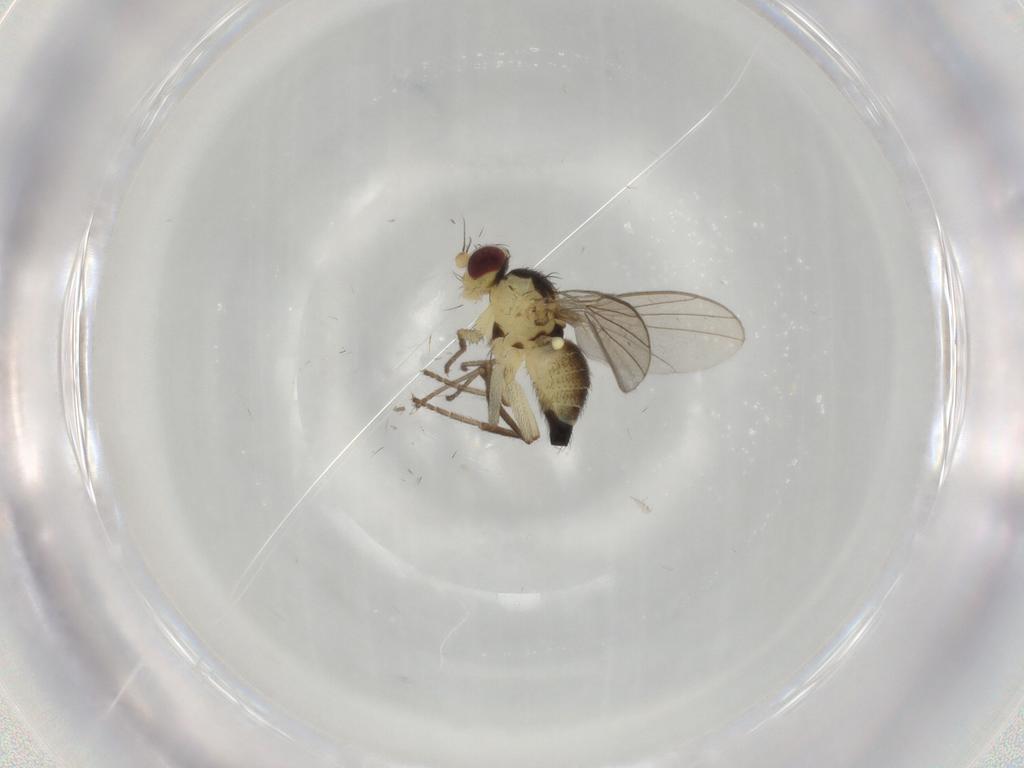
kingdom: Animalia
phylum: Arthropoda
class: Insecta
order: Diptera
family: Agromyzidae
